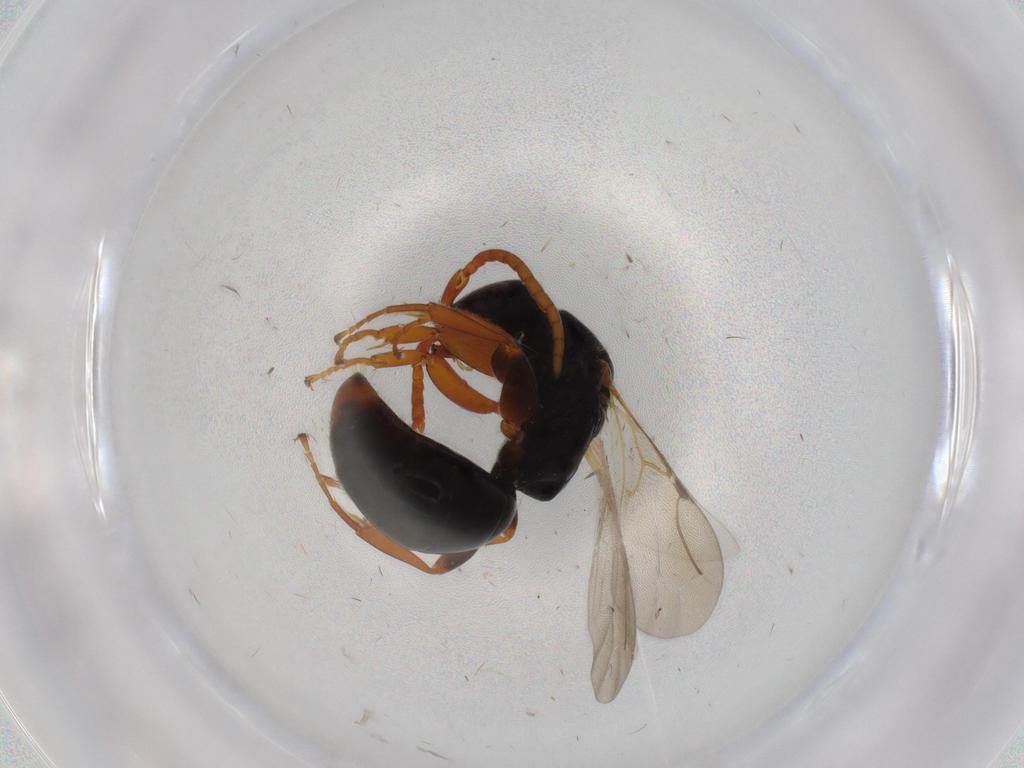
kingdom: Animalia
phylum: Arthropoda
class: Insecta
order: Hymenoptera
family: Bethylidae
